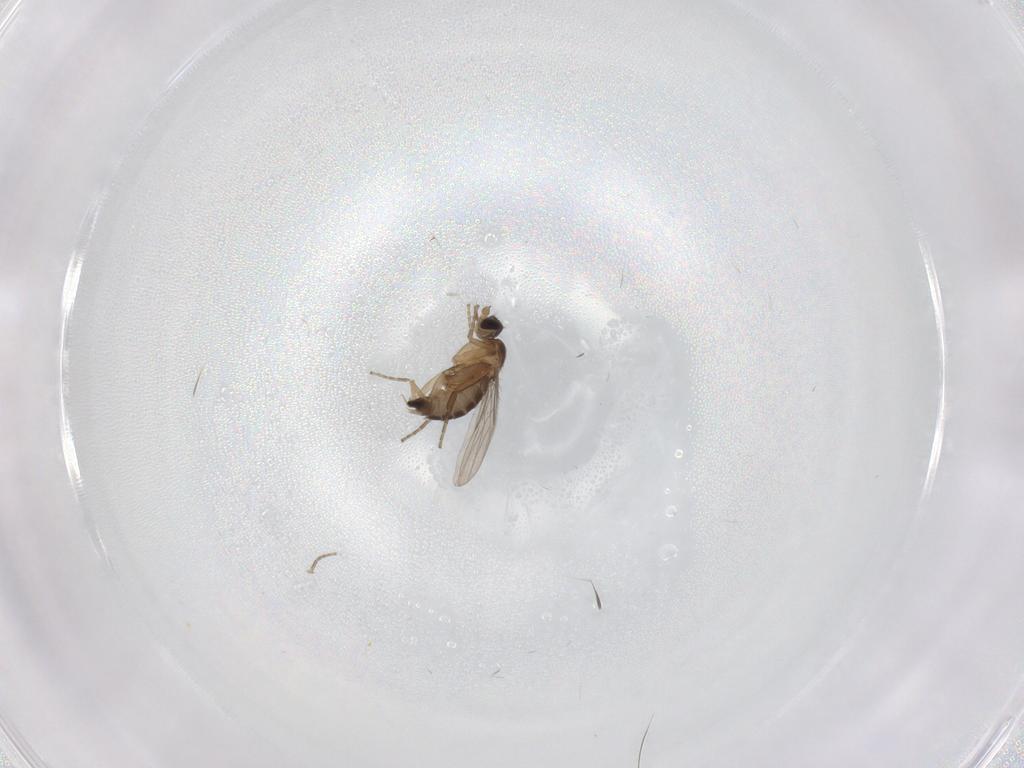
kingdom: Animalia
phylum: Arthropoda
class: Insecta
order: Diptera
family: Phoridae
